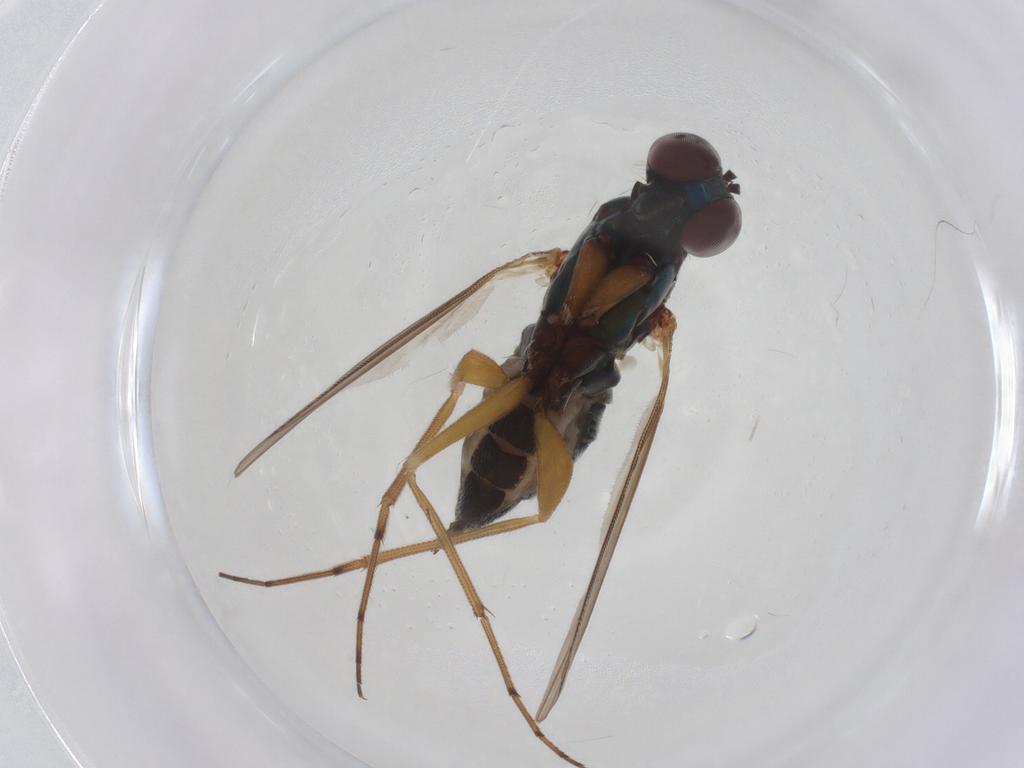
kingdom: Animalia
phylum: Arthropoda
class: Insecta
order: Diptera
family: Chironomidae
